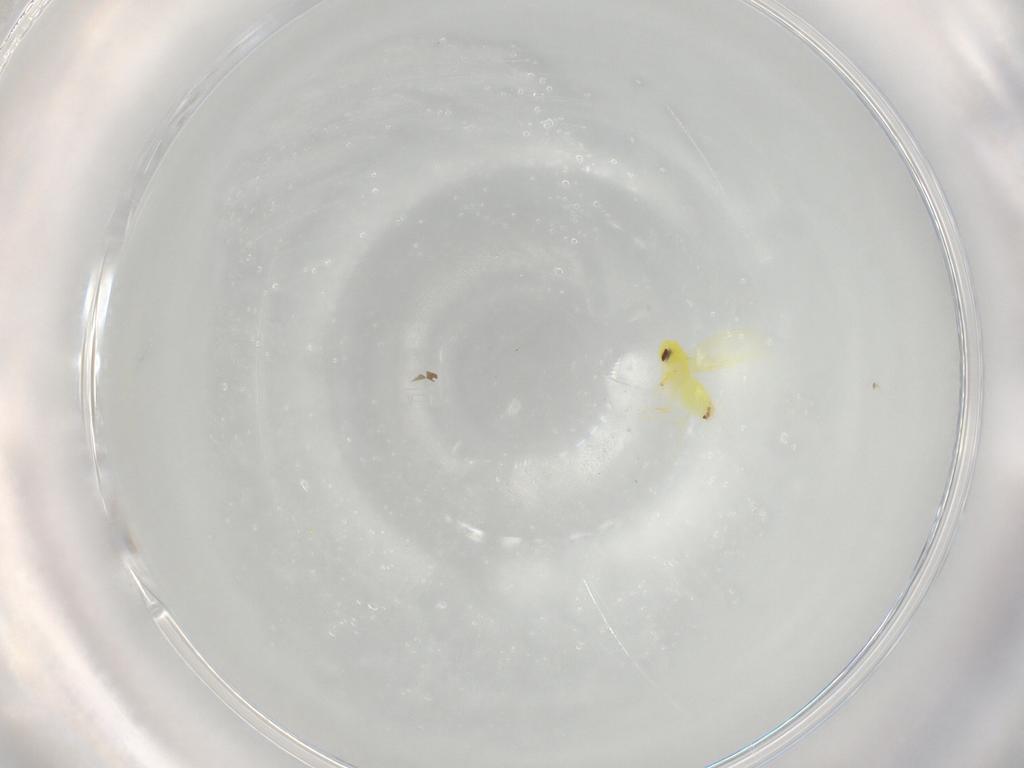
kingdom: Animalia
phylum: Arthropoda
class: Insecta
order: Hemiptera
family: Aleyrodidae
